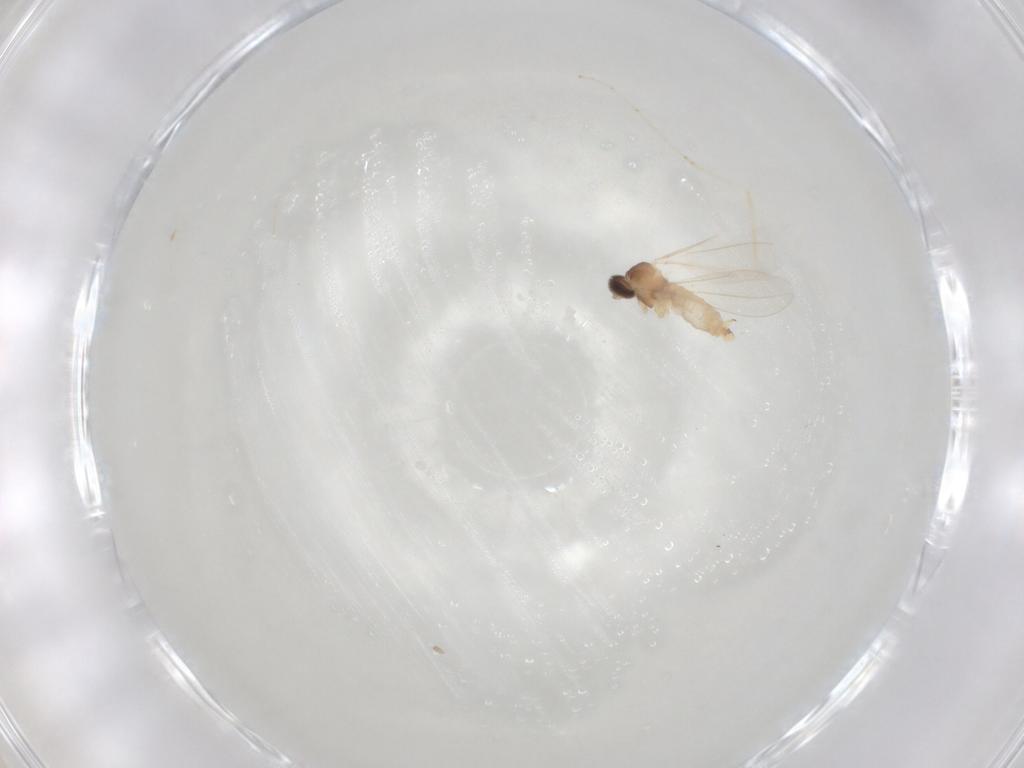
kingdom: Animalia
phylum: Arthropoda
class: Insecta
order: Diptera
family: Cecidomyiidae
